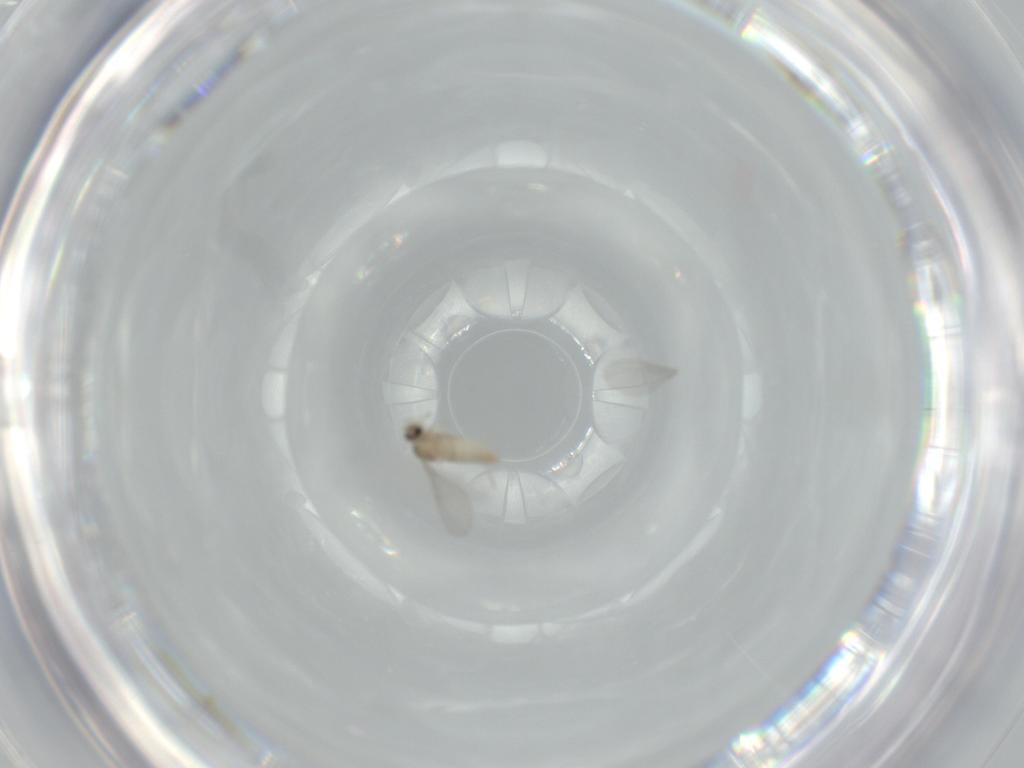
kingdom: Animalia
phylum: Arthropoda
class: Insecta
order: Diptera
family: Cecidomyiidae
